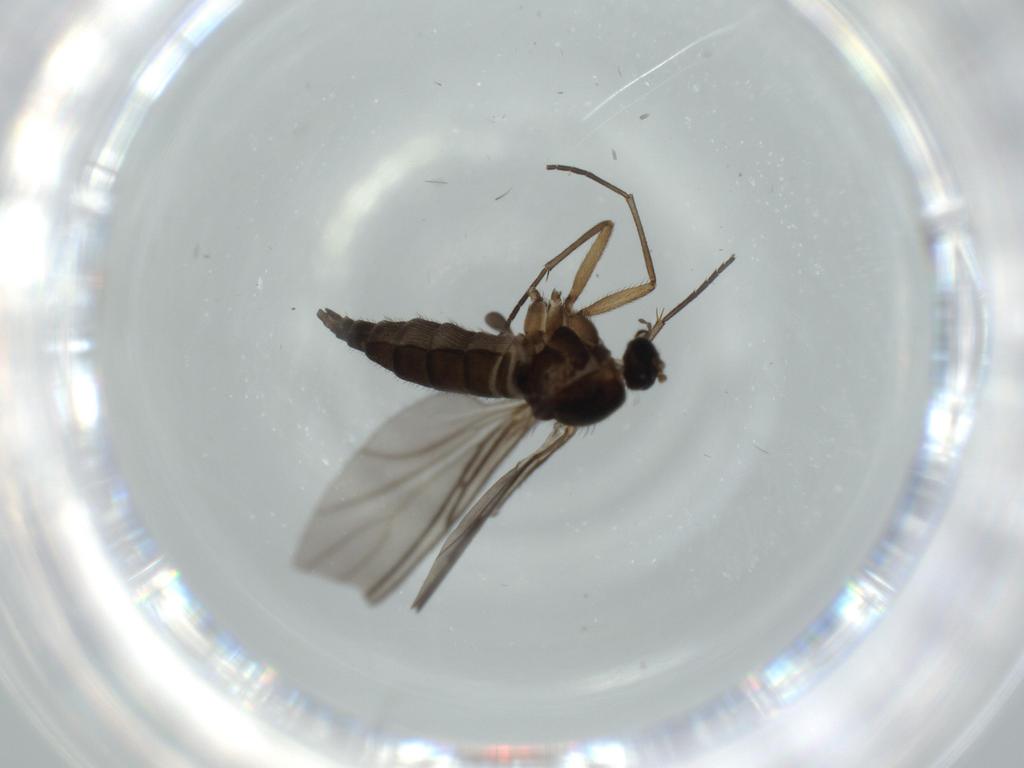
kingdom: Animalia
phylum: Arthropoda
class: Insecta
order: Diptera
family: Sciaridae
